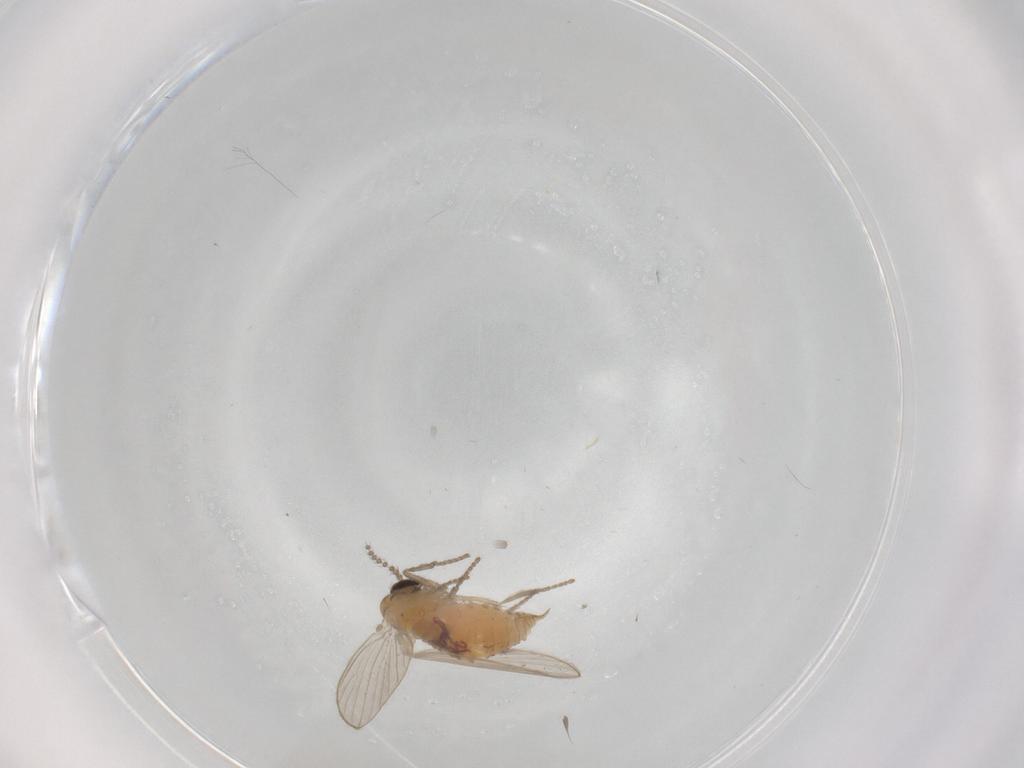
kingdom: Animalia
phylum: Arthropoda
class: Insecta
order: Diptera
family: Psychodidae
